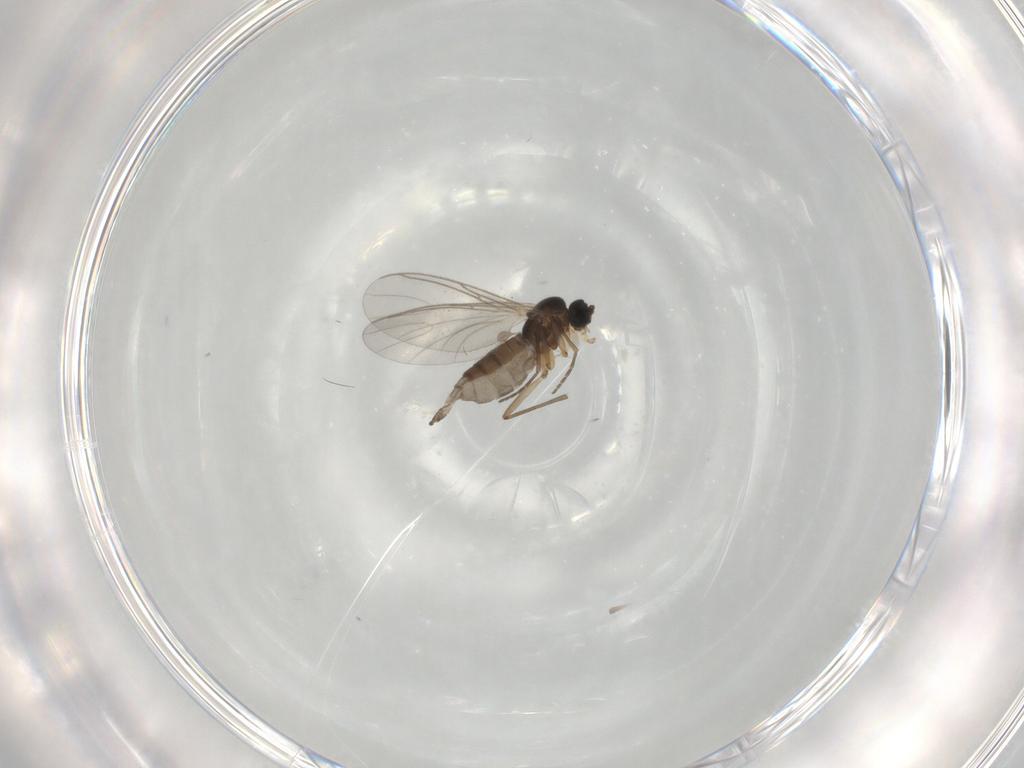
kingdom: Animalia
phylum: Arthropoda
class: Insecta
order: Diptera
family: Sciaridae
